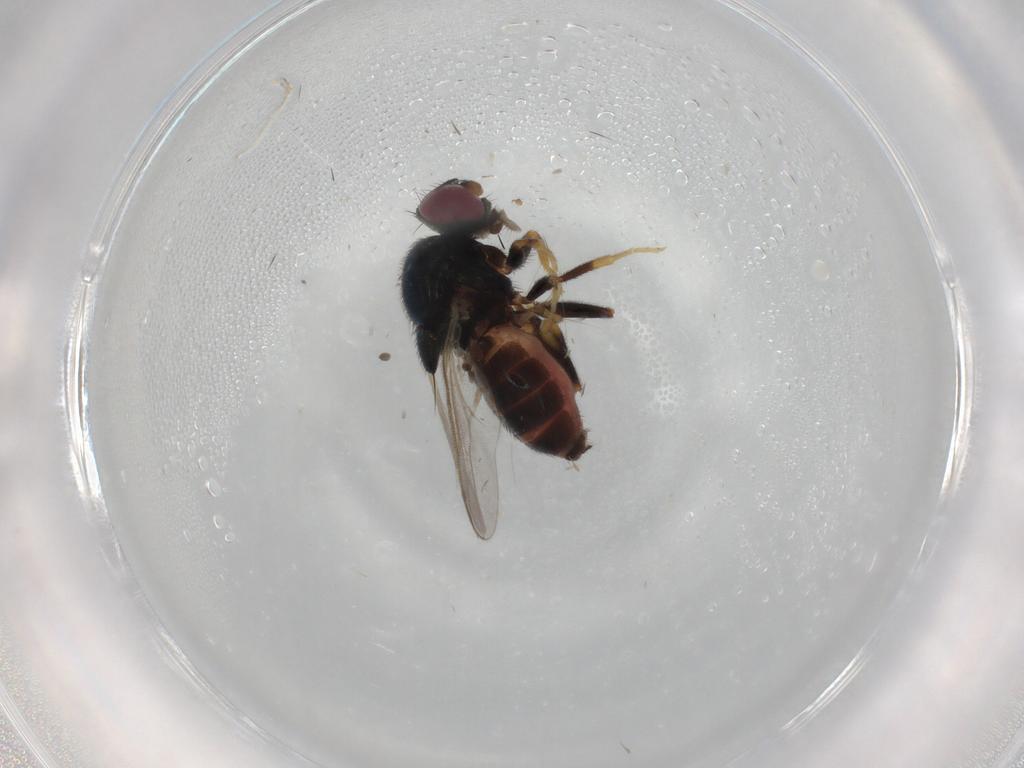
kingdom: Animalia
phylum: Arthropoda
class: Insecta
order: Diptera
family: Chloropidae
